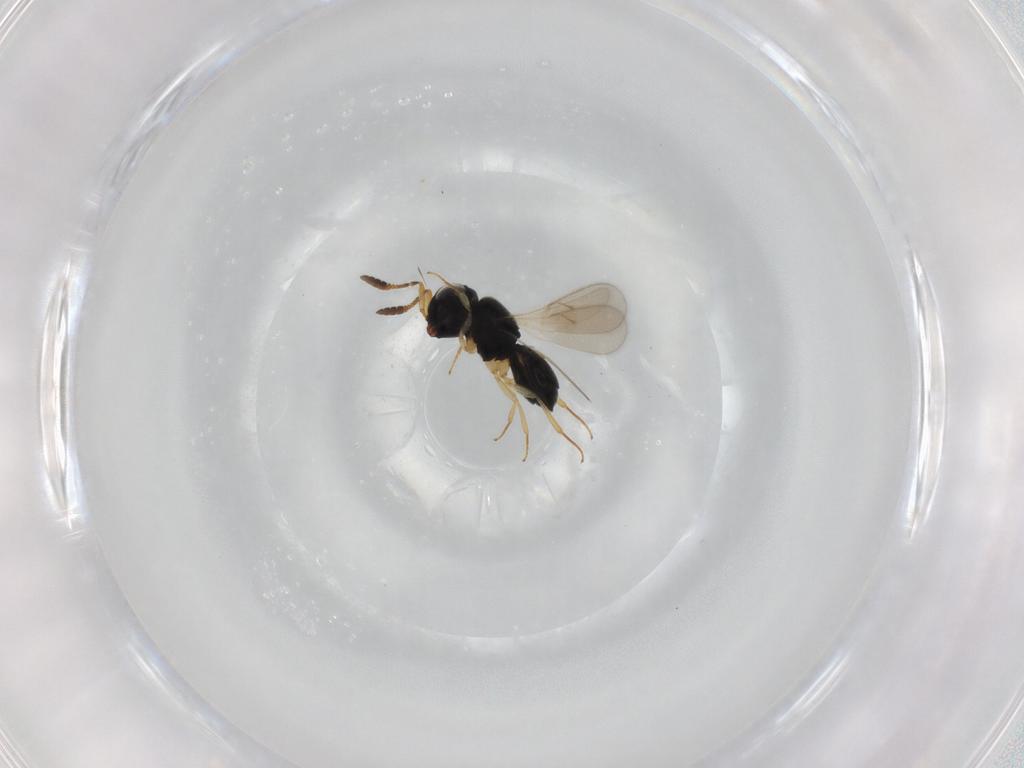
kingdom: Animalia
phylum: Arthropoda
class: Insecta
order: Hymenoptera
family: Scelionidae
